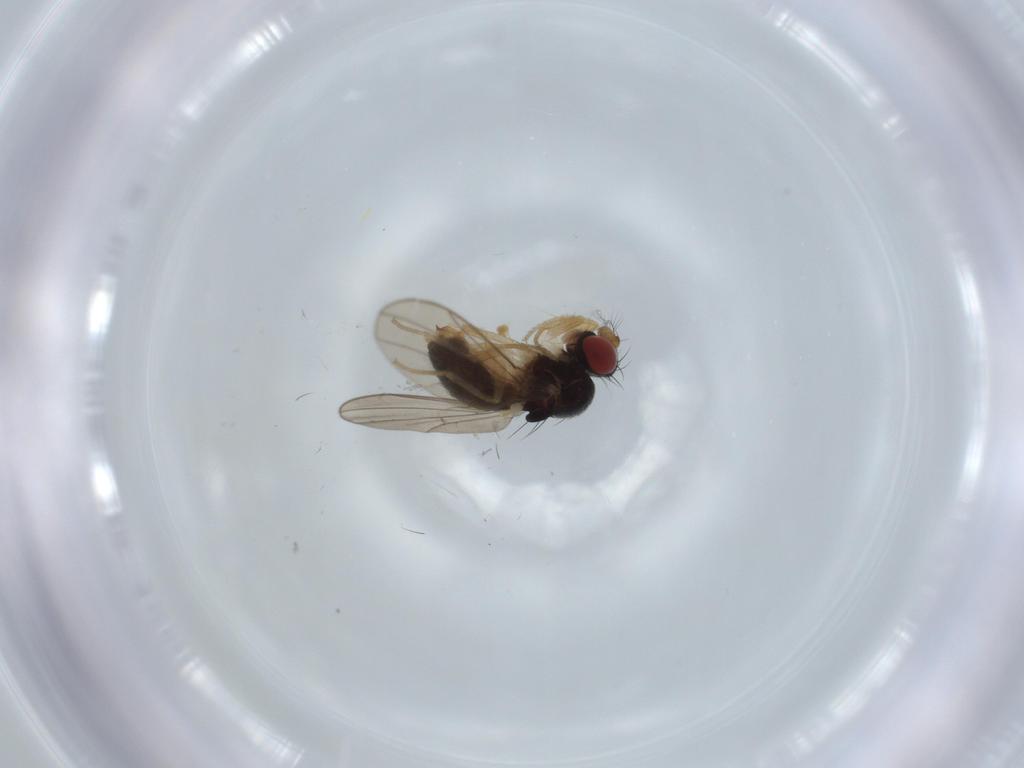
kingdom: Animalia
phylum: Arthropoda
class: Insecta
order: Diptera
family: Drosophilidae
